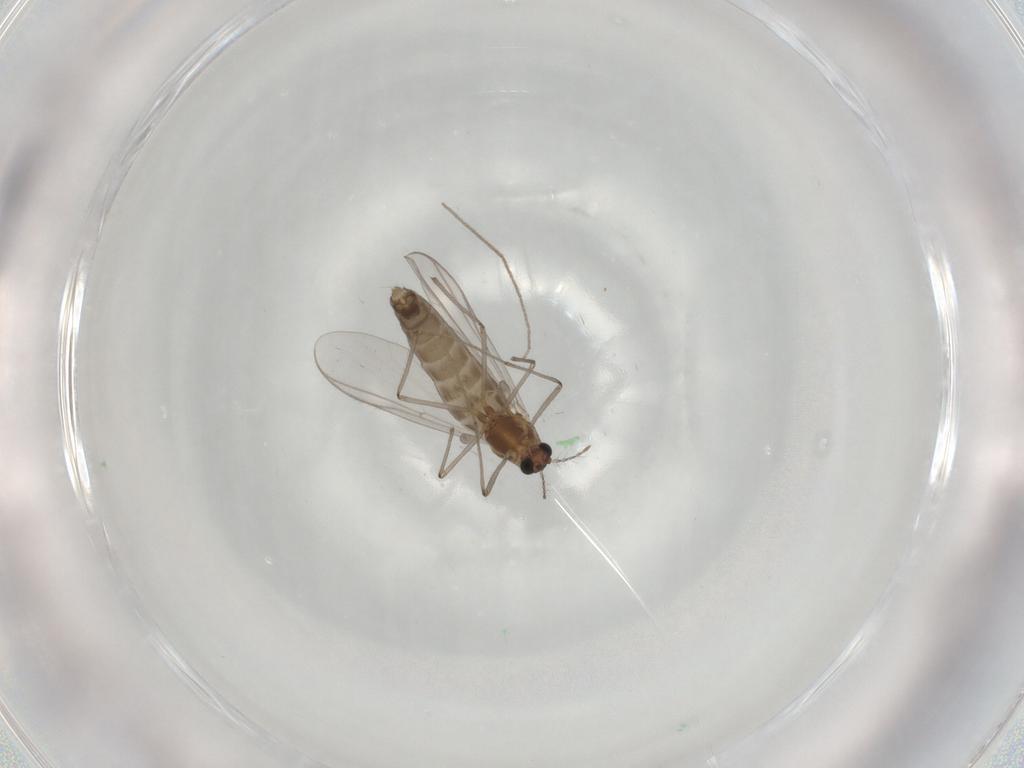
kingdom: Animalia
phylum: Arthropoda
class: Insecta
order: Diptera
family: Chironomidae
